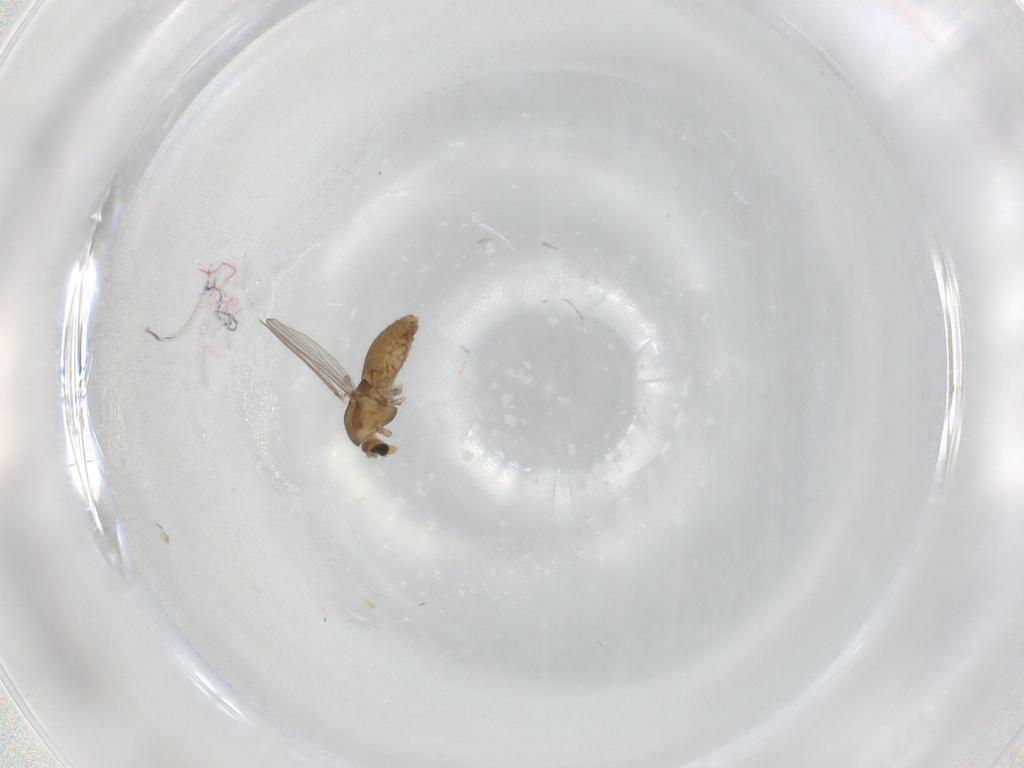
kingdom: Animalia
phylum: Arthropoda
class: Insecta
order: Diptera
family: Chironomidae
